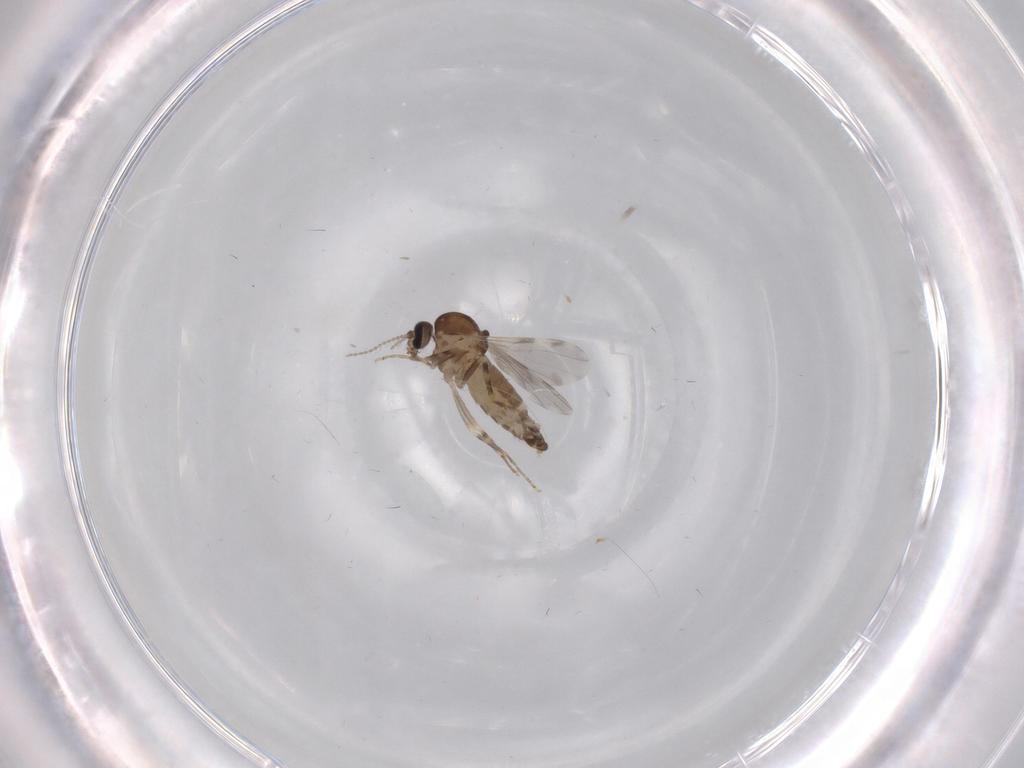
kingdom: Animalia
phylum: Arthropoda
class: Insecta
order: Diptera
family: Ceratopogonidae
